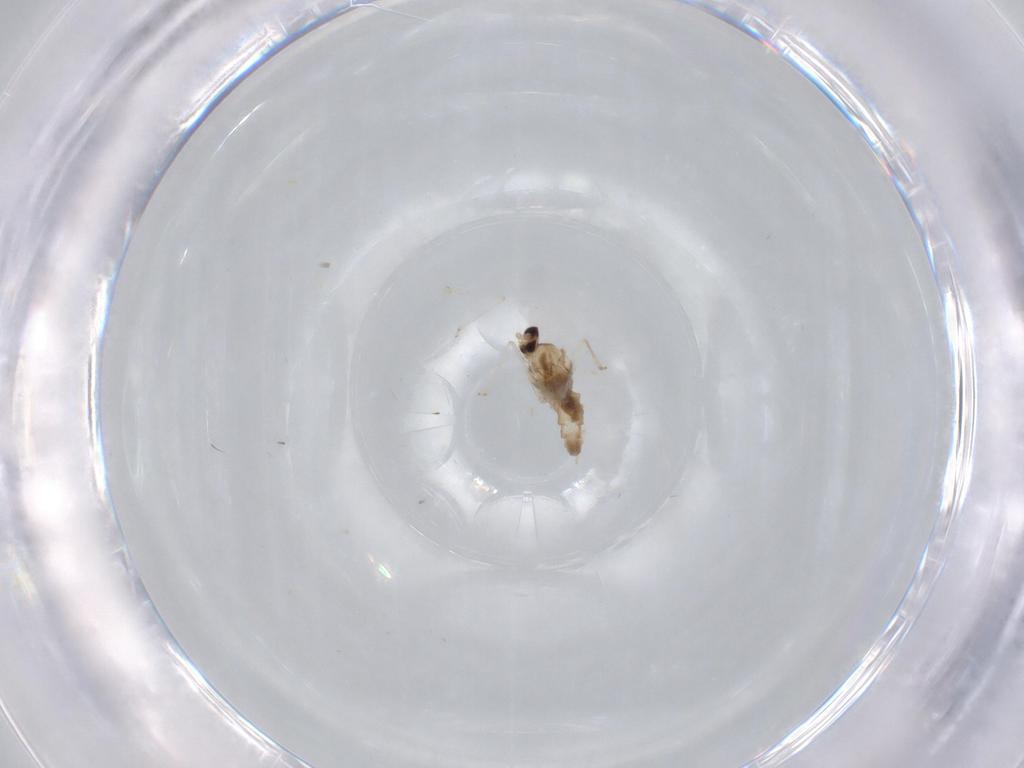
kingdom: Animalia
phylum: Arthropoda
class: Insecta
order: Diptera
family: Cecidomyiidae
